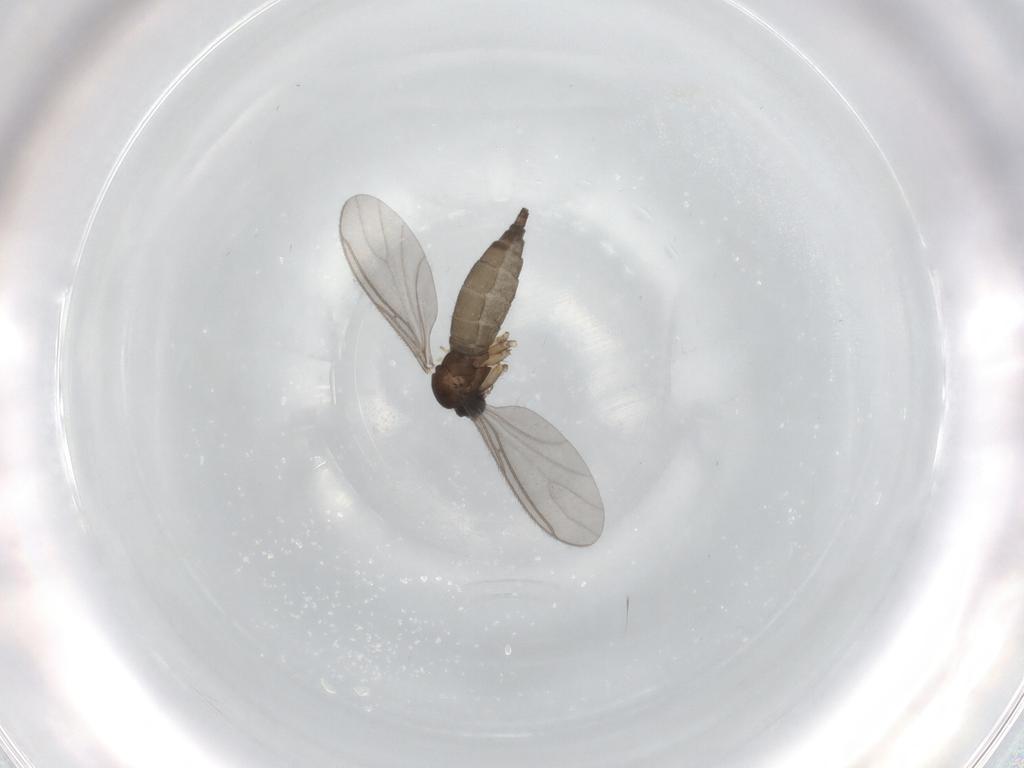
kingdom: Animalia
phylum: Arthropoda
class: Insecta
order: Diptera
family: Sciaridae
